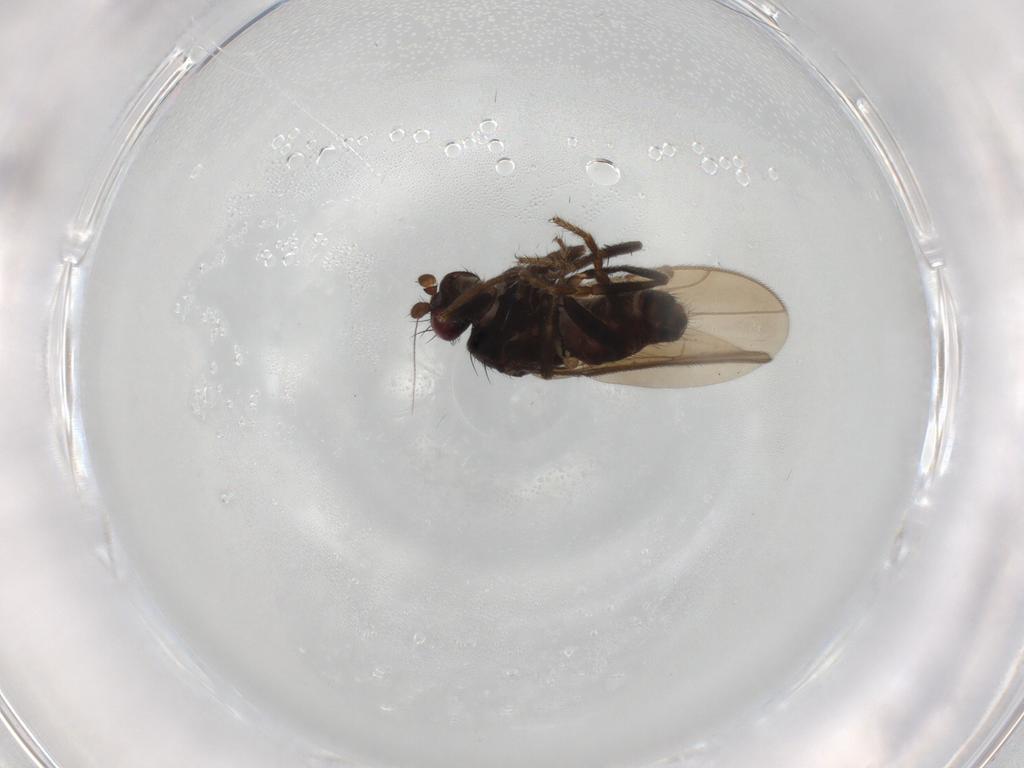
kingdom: Animalia
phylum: Arthropoda
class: Insecta
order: Diptera
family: Sphaeroceridae
